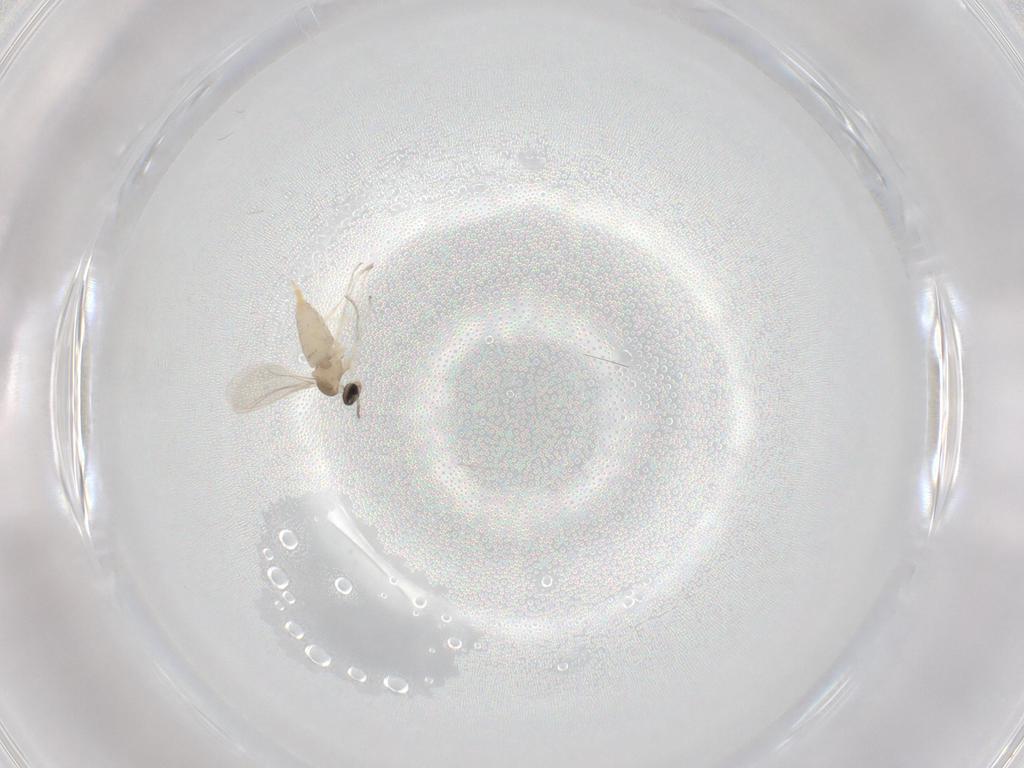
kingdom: Animalia
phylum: Arthropoda
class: Insecta
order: Diptera
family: Cecidomyiidae
